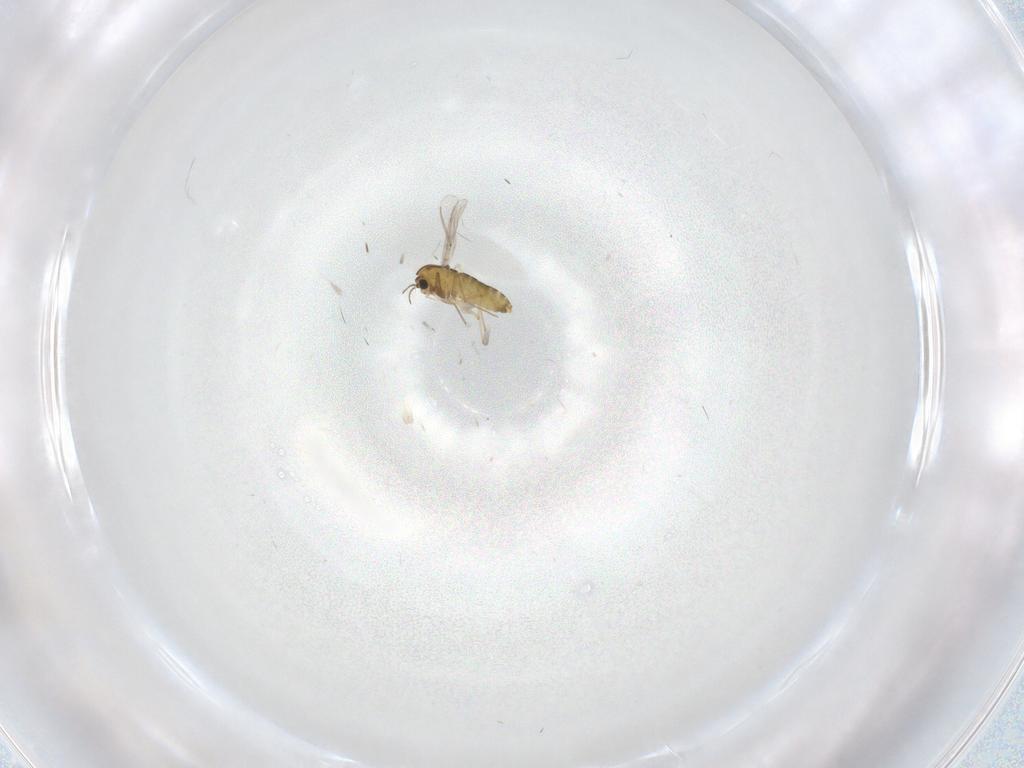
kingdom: Animalia
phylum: Arthropoda
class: Insecta
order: Diptera
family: Chironomidae
